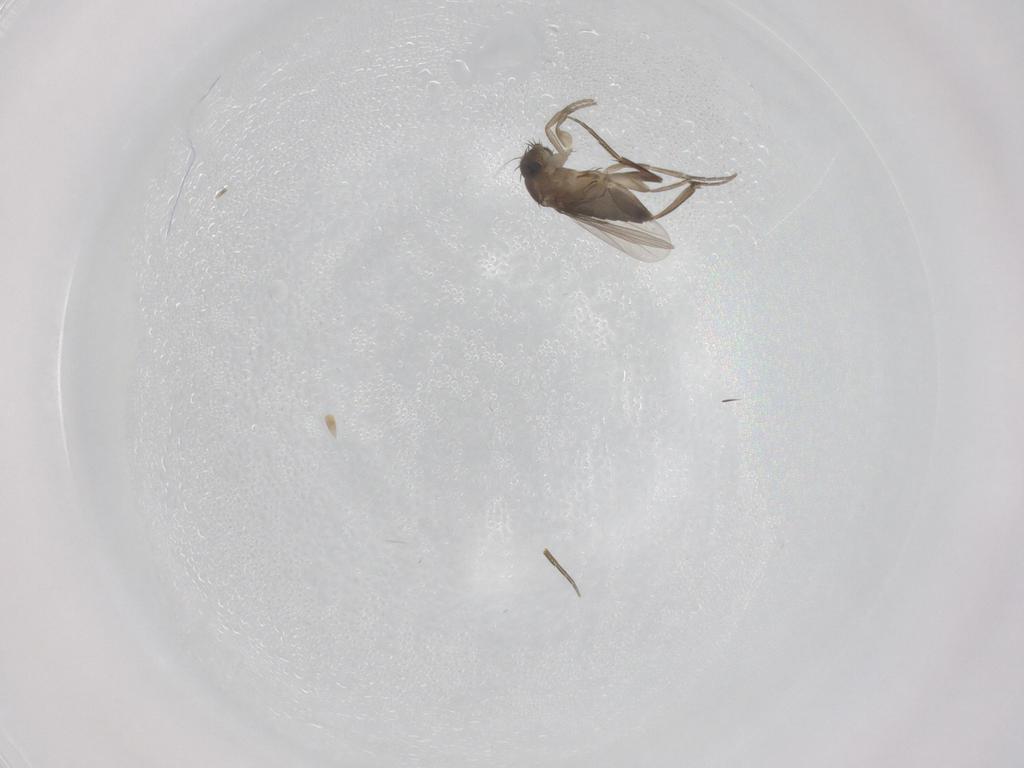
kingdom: Animalia
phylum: Arthropoda
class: Insecta
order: Diptera
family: Phoridae
